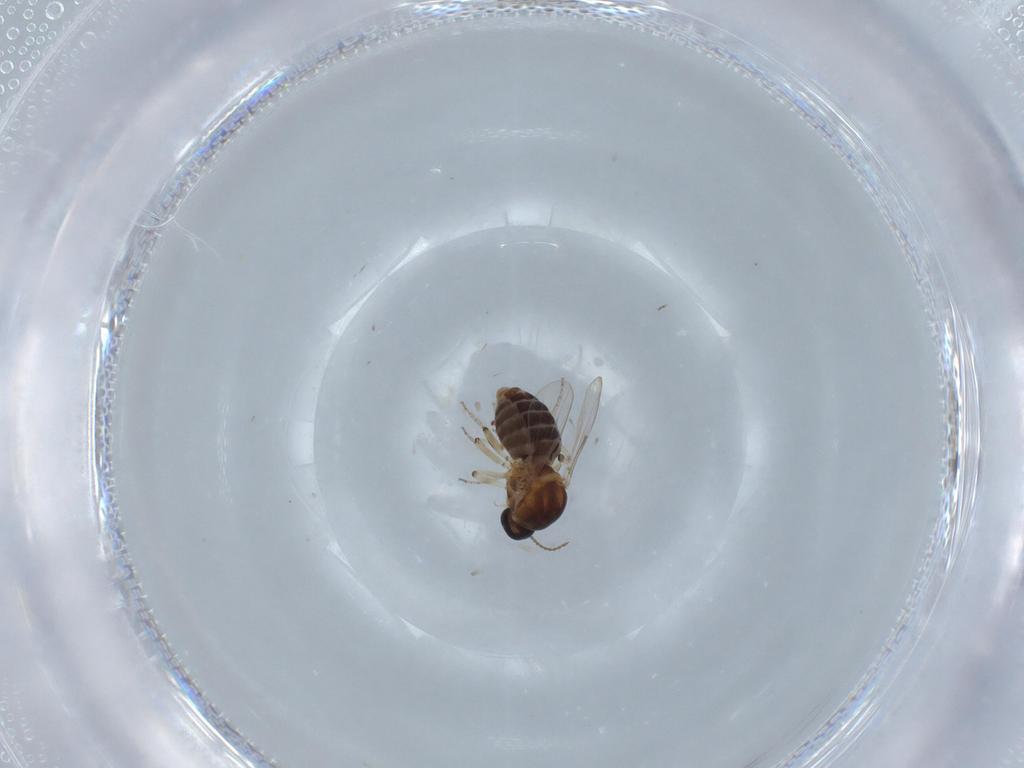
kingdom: Animalia
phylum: Arthropoda
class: Insecta
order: Diptera
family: Ceratopogonidae
